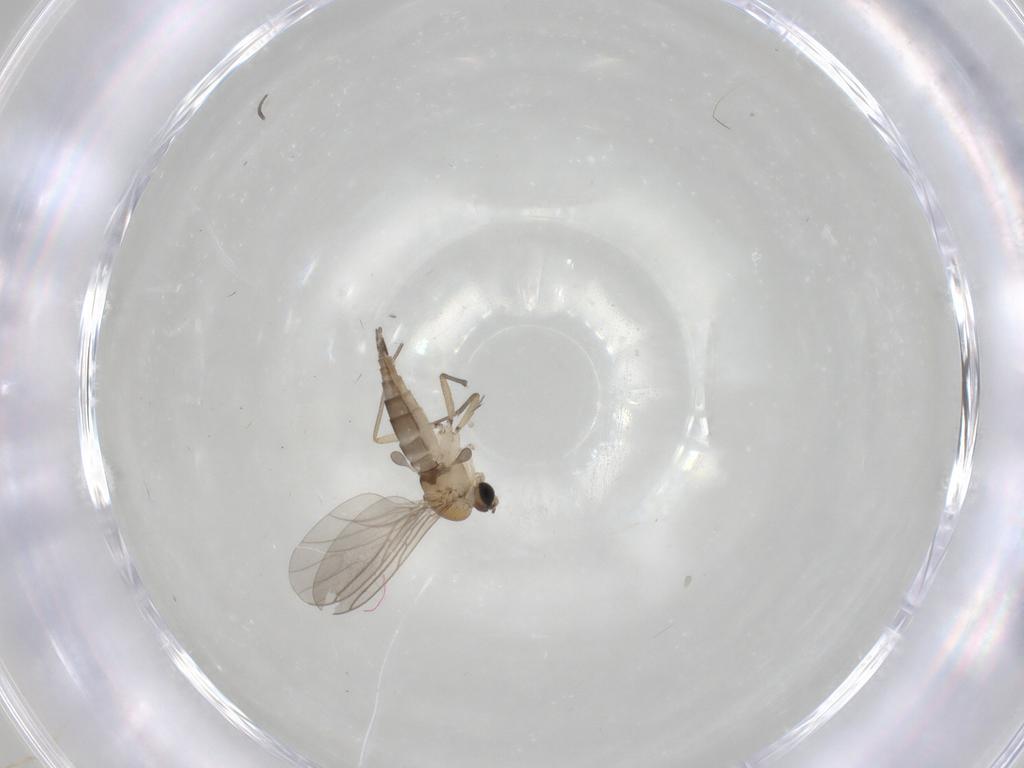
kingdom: Animalia
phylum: Arthropoda
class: Insecta
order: Diptera
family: Sciaridae
